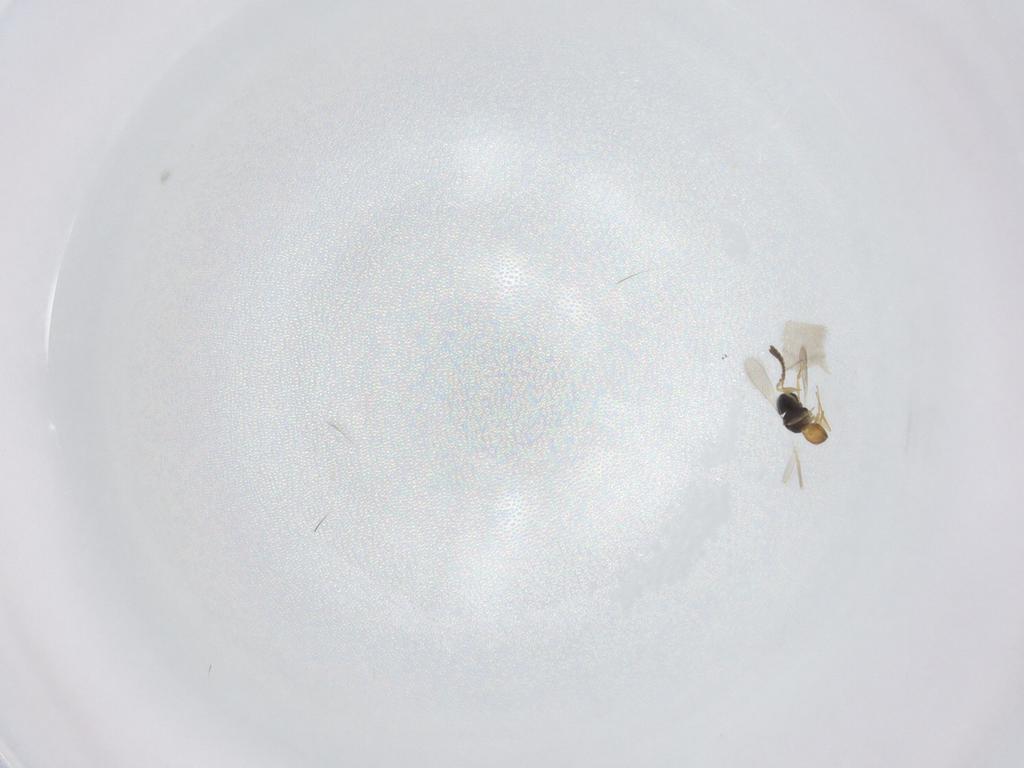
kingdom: Animalia
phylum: Arthropoda
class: Insecta
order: Hymenoptera
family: Scelionidae
